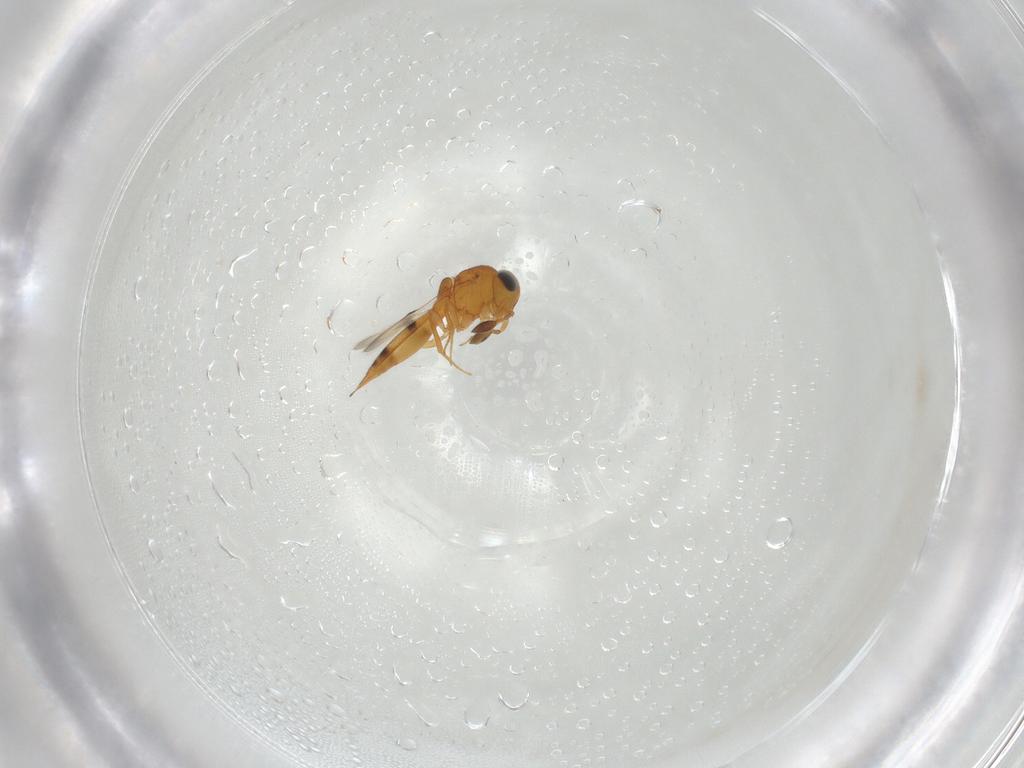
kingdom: Animalia
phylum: Arthropoda
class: Insecta
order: Hymenoptera
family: Scelionidae
